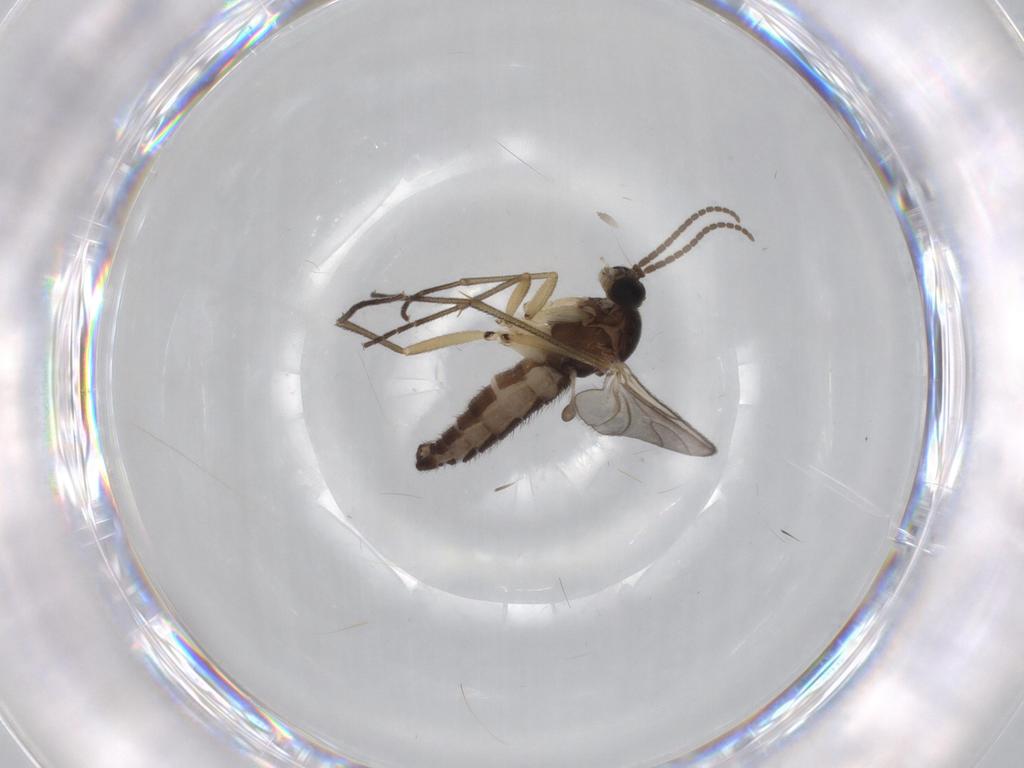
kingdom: Animalia
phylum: Arthropoda
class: Insecta
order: Diptera
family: Sciaridae
